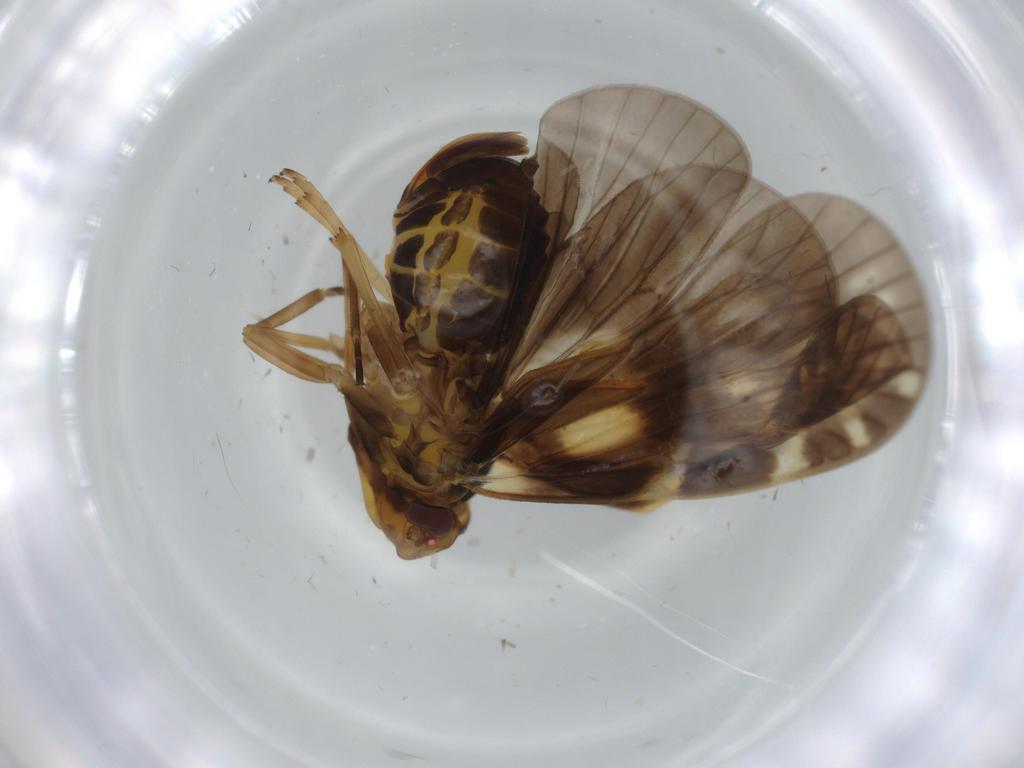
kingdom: Animalia
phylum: Arthropoda
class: Insecta
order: Hemiptera
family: Cixiidae
